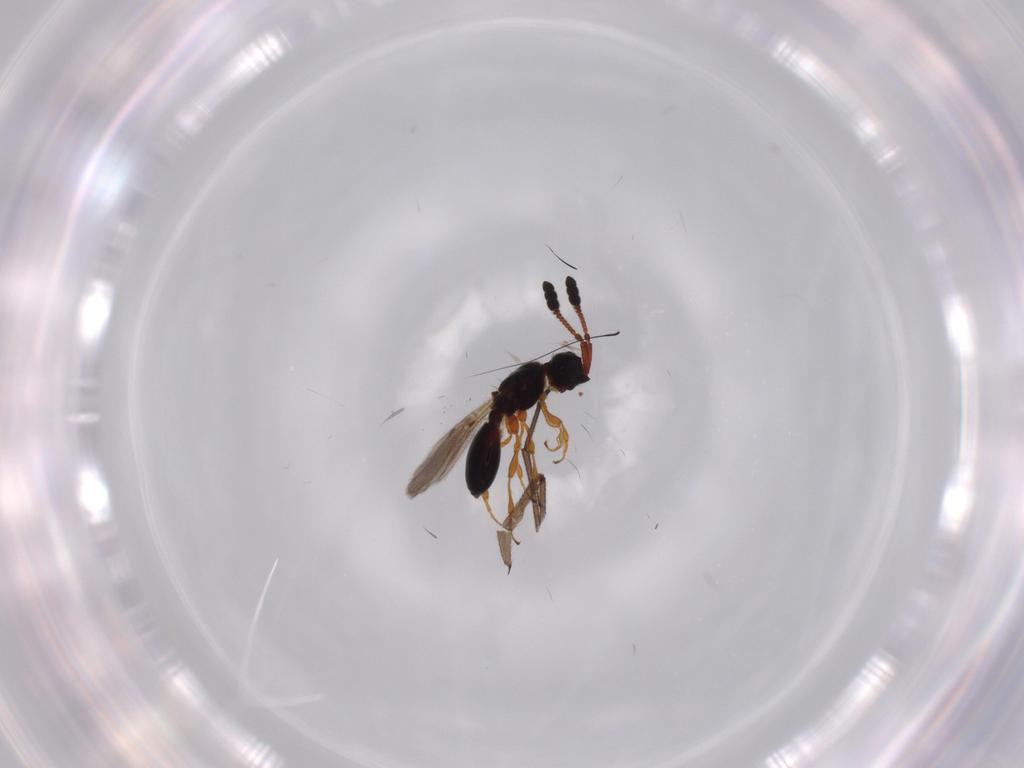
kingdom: Animalia
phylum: Arthropoda
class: Insecta
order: Hymenoptera
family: Diapriidae
